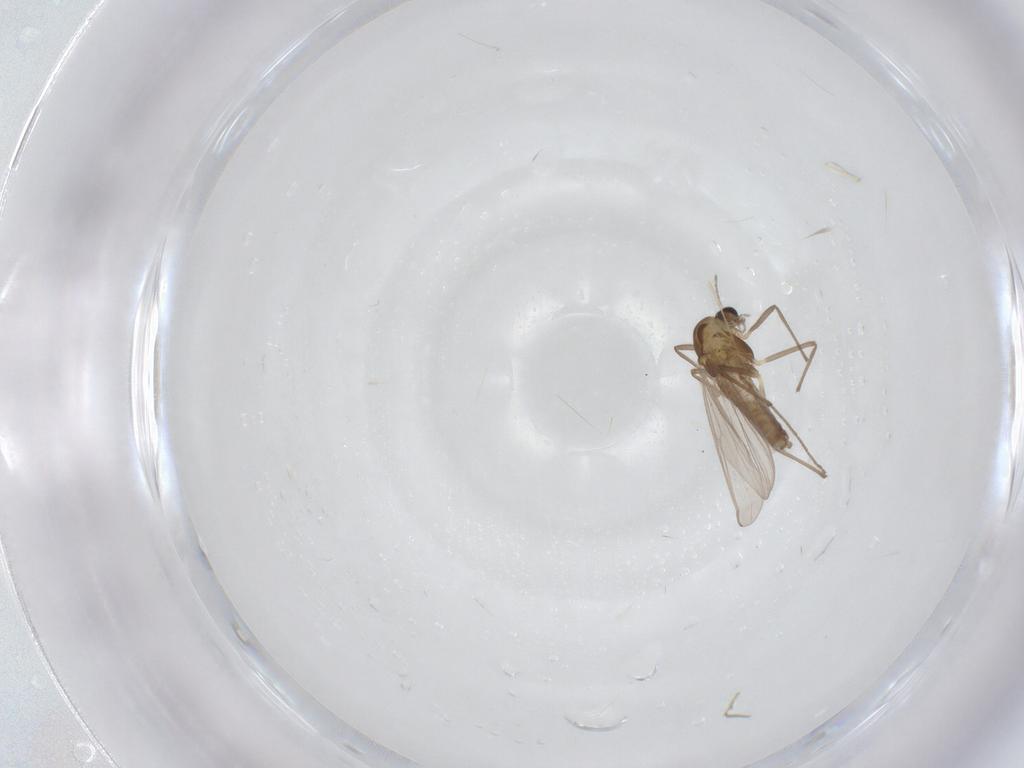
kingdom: Animalia
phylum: Arthropoda
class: Insecta
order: Diptera
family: Chironomidae
